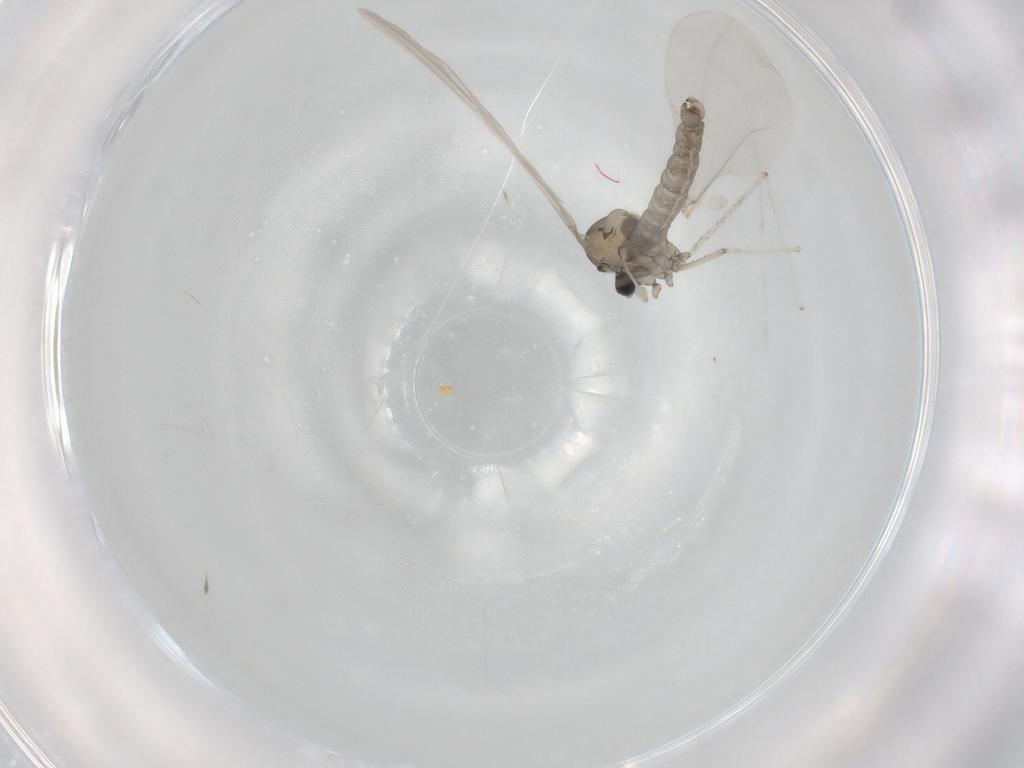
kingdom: Animalia
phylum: Arthropoda
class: Insecta
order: Diptera
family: Cecidomyiidae
